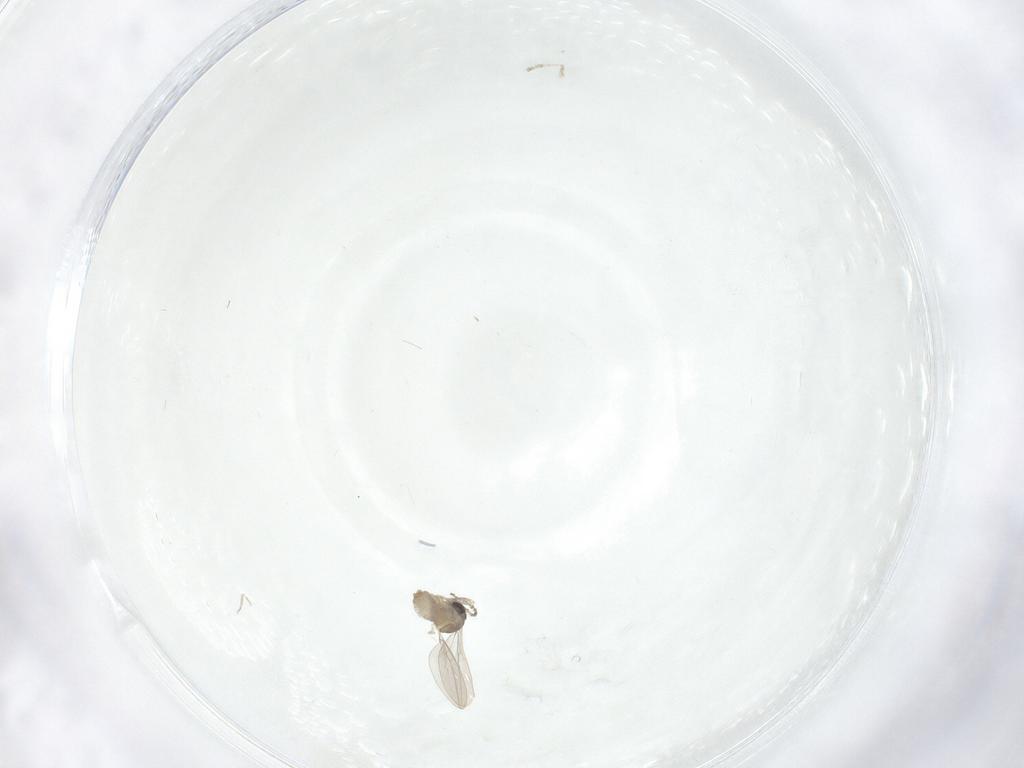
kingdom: Animalia
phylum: Arthropoda
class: Insecta
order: Diptera
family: Cecidomyiidae
